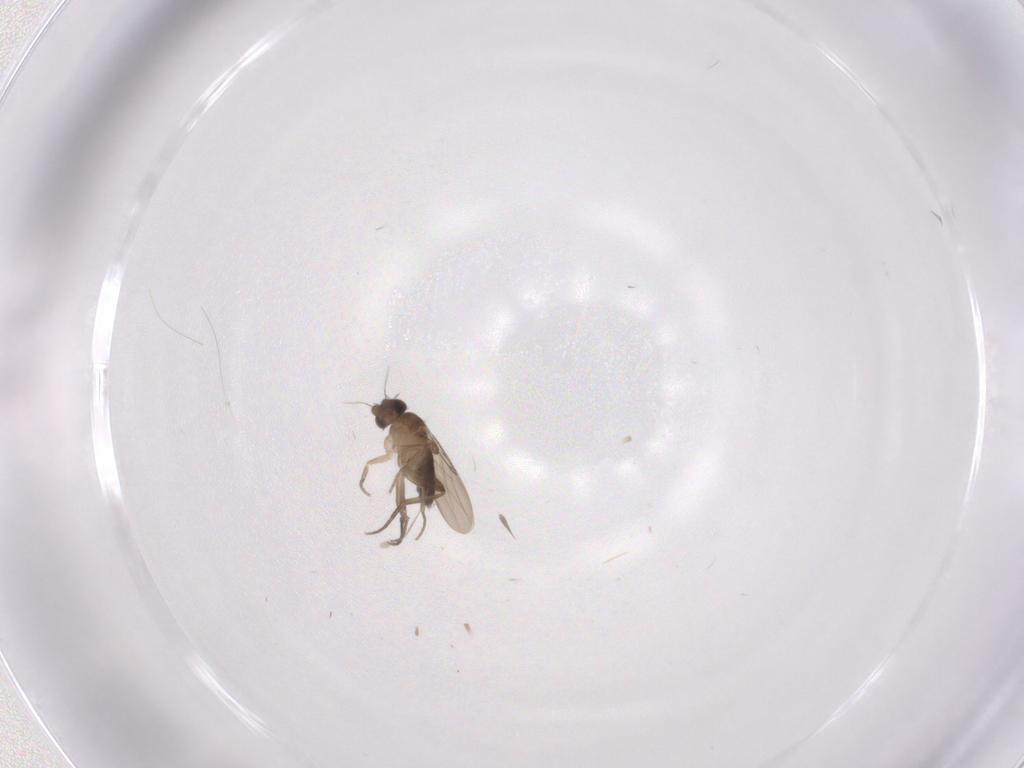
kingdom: Animalia
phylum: Arthropoda
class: Insecta
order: Diptera
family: Phoridae
